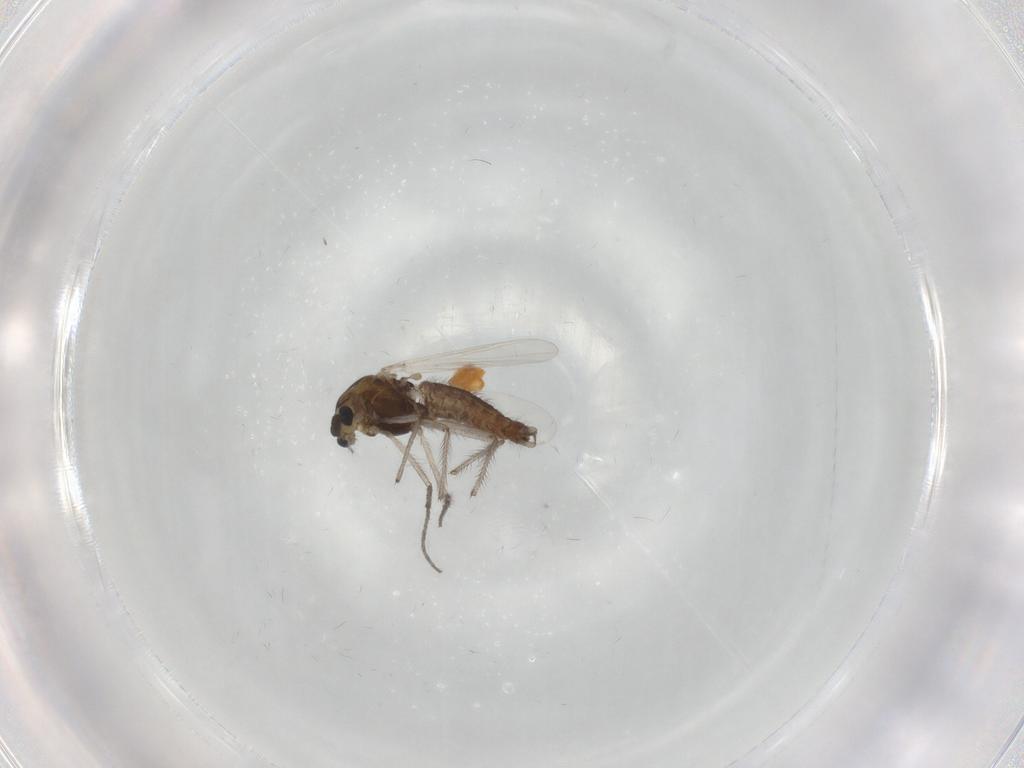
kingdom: Animalia
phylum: Arthropoda
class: Insecta
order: Diptera
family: Chironomidae
